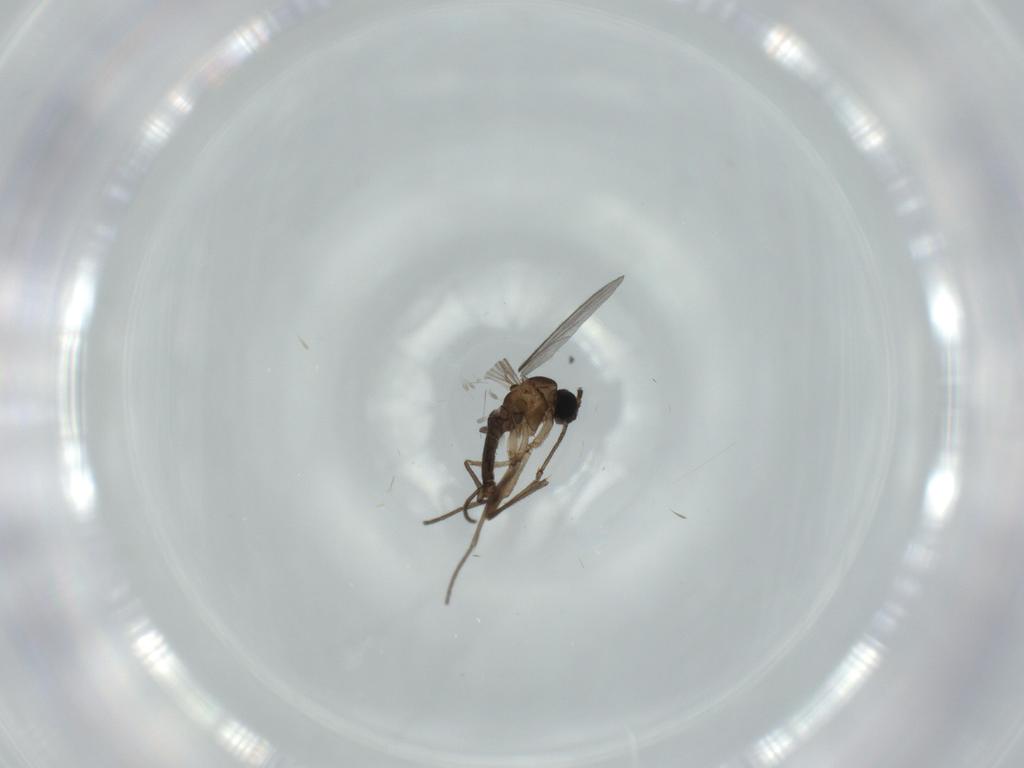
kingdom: Animalia
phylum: Arthropoda
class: Insecta
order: Diptera
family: Sciaridae
